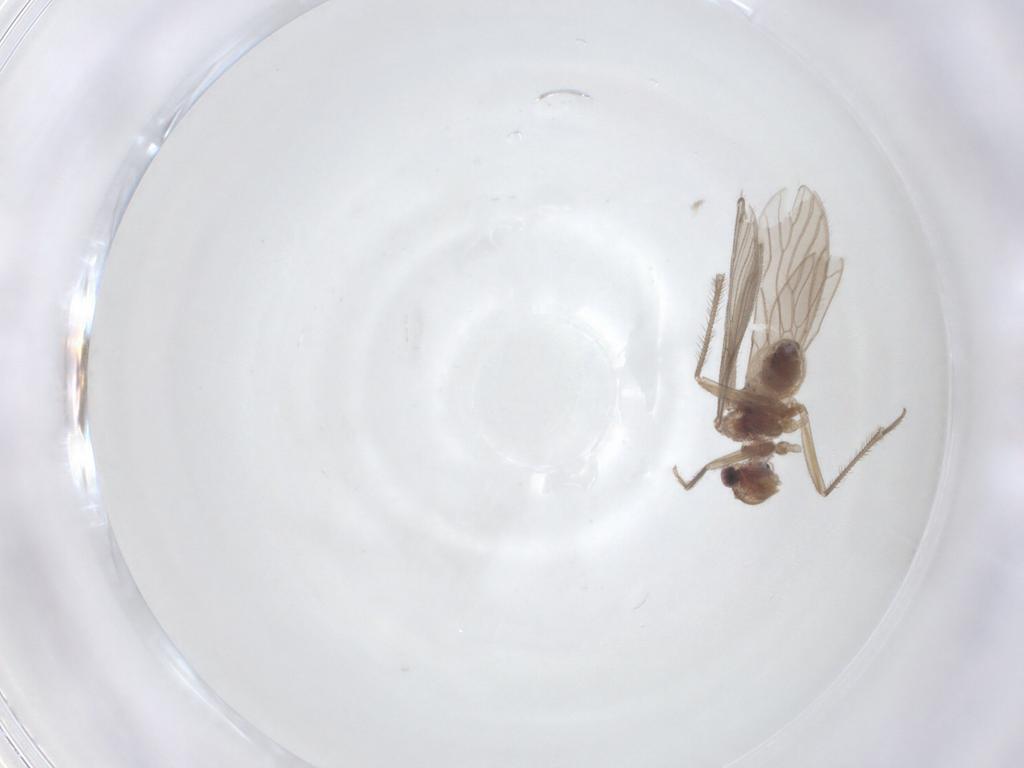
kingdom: Animalia
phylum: Arthropoda
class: Insecta
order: Psocodea
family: Cladiopsocidae
